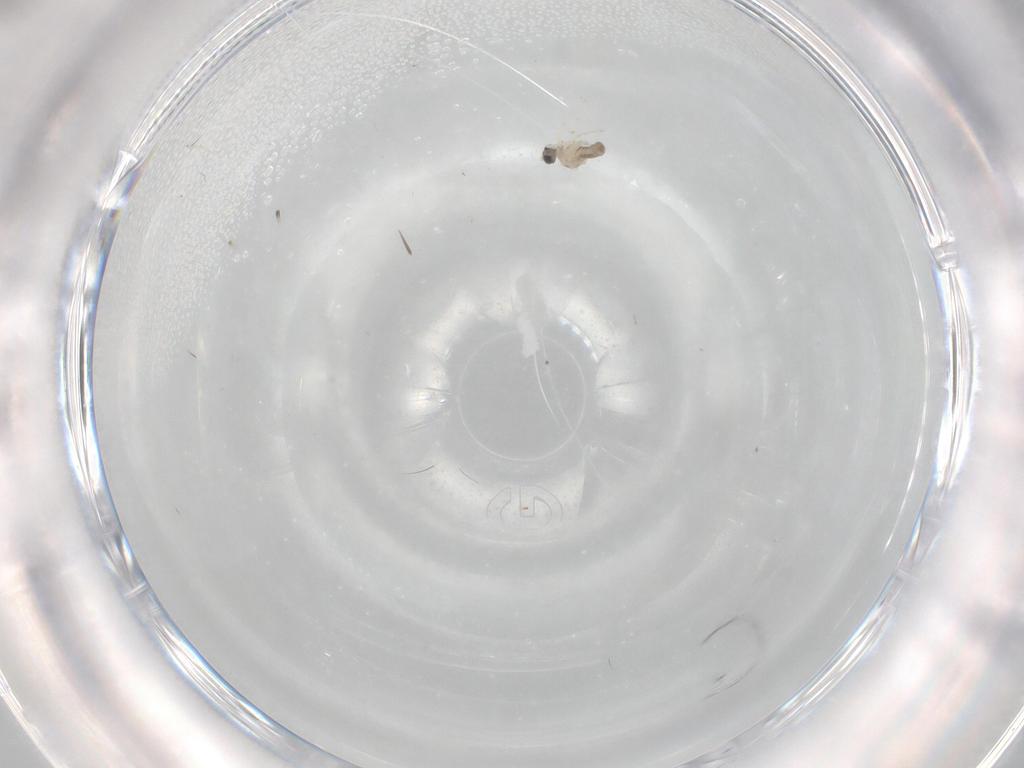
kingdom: Animalia
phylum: Arthropoda
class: Insecta
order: Diptera
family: Cecidomyiidae
